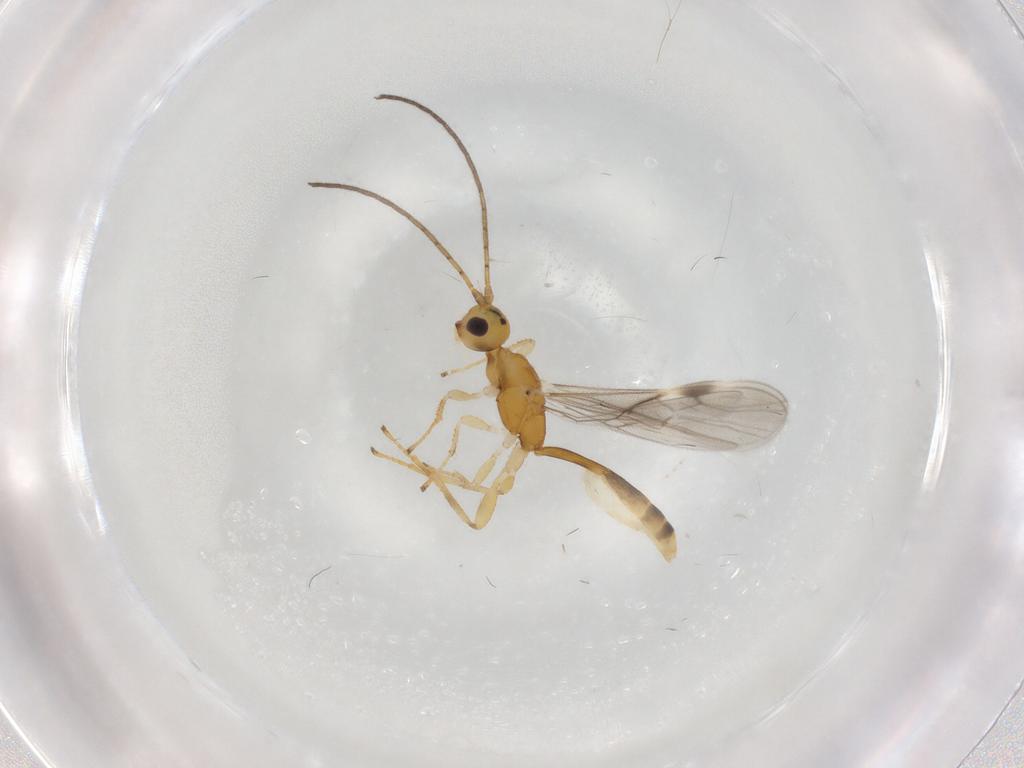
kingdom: Animalia
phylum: Arthropoda
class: Insecta
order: Hymenoptera
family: Braconidae
